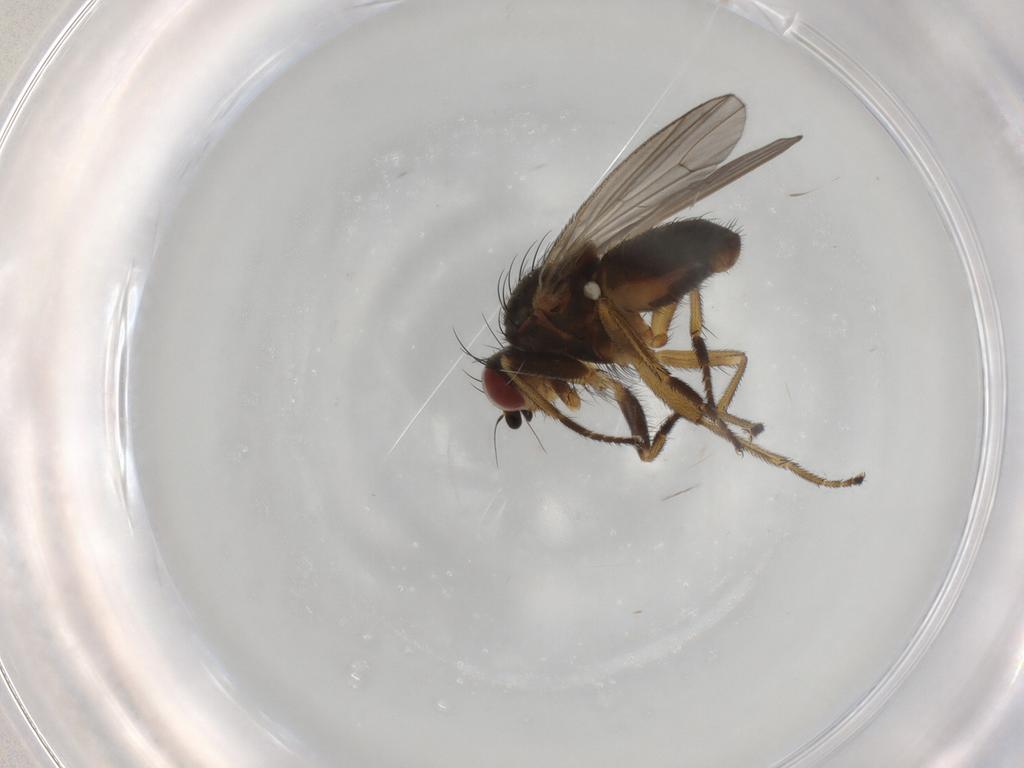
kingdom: Animalia
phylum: Arthropoda
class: Insecta
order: Diptera
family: Heleomyzidae
